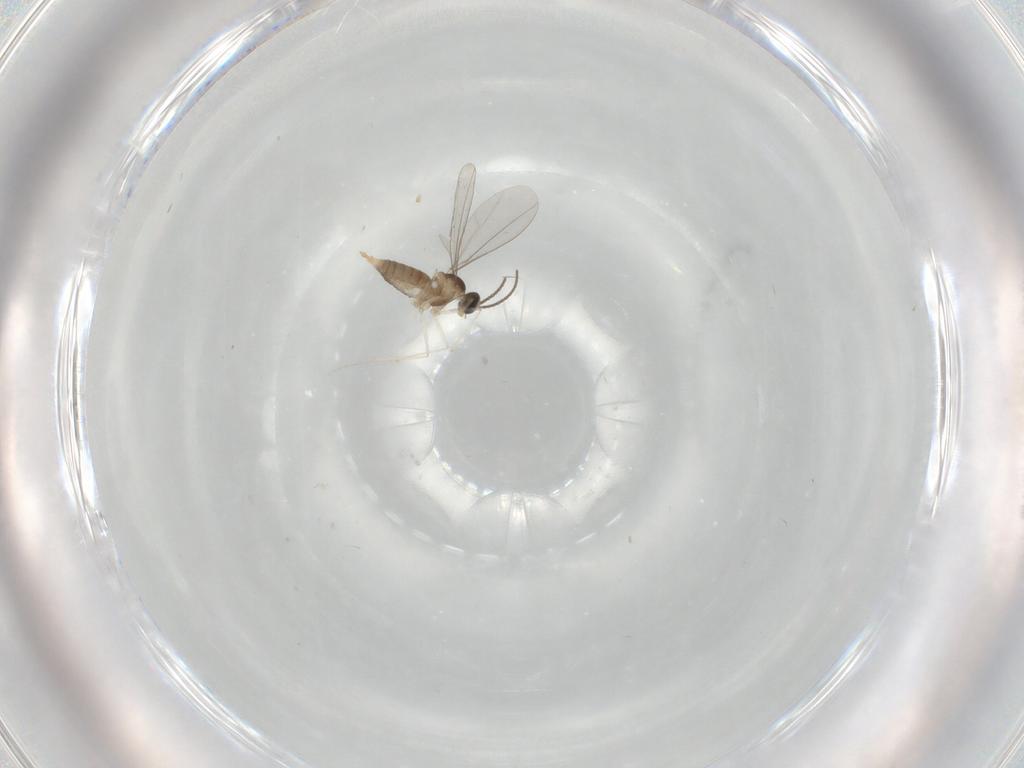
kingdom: Animalia
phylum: Arthropoda
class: Insecta
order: Diptera
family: Cecidomyiidae
